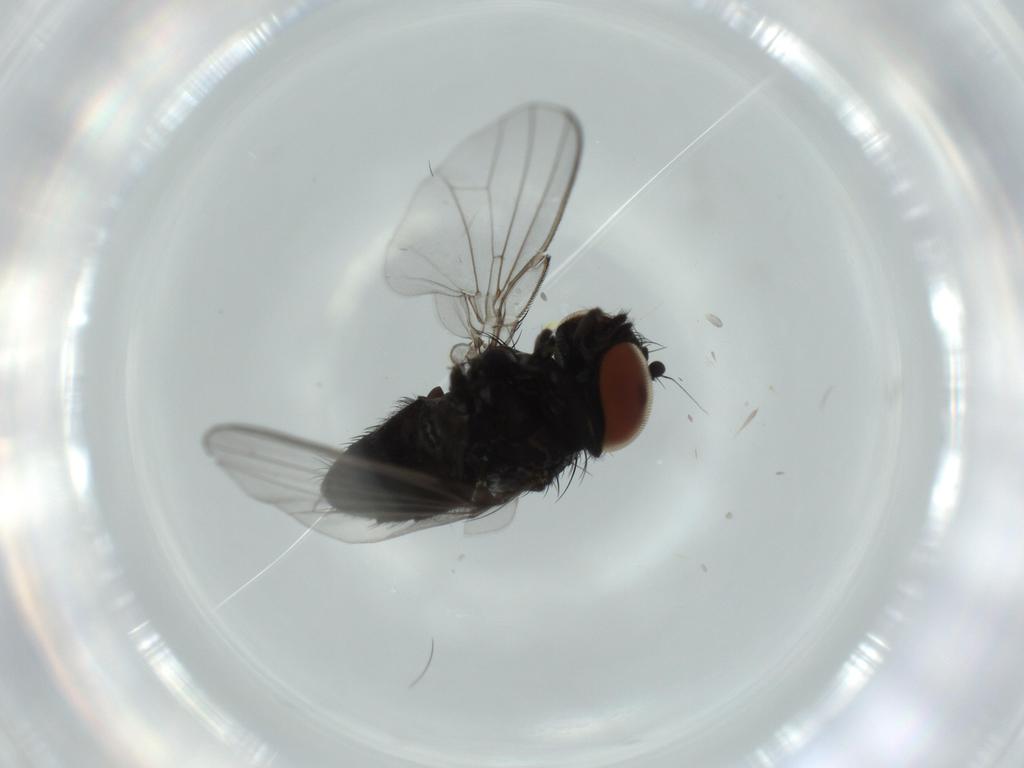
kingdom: Animalia
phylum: Arthropoda
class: Insecta
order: Diptera
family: Milichiidae
